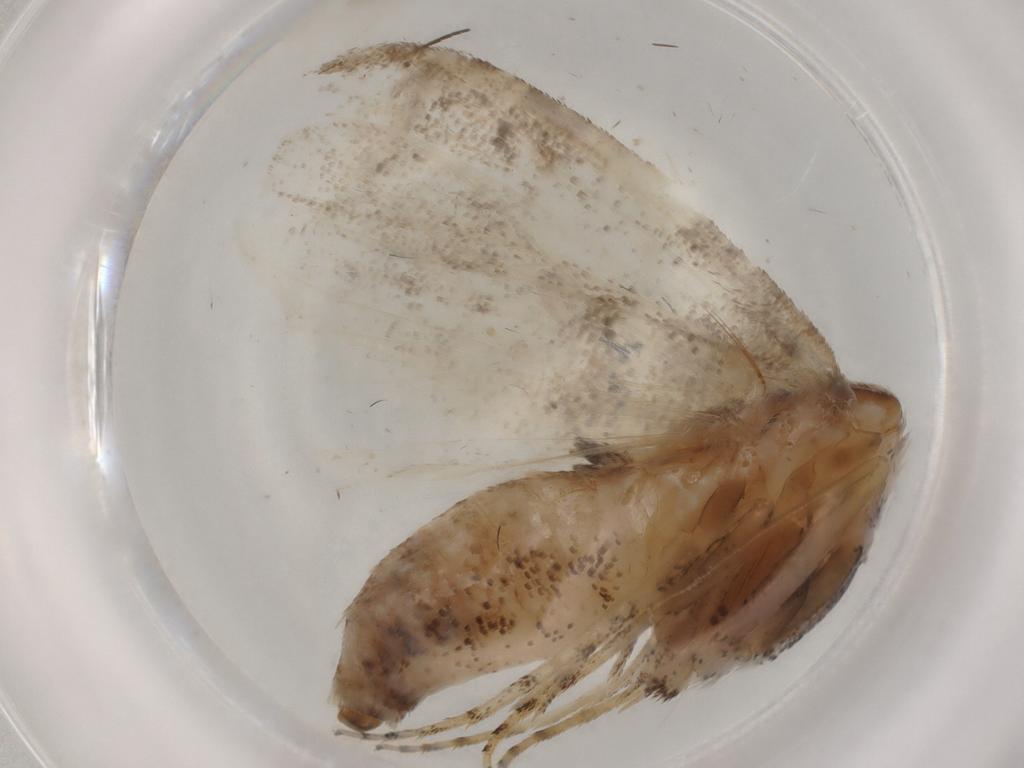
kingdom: Animalia
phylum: Arthropoda
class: Insecta
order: Lepidoptera
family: Nolidae
